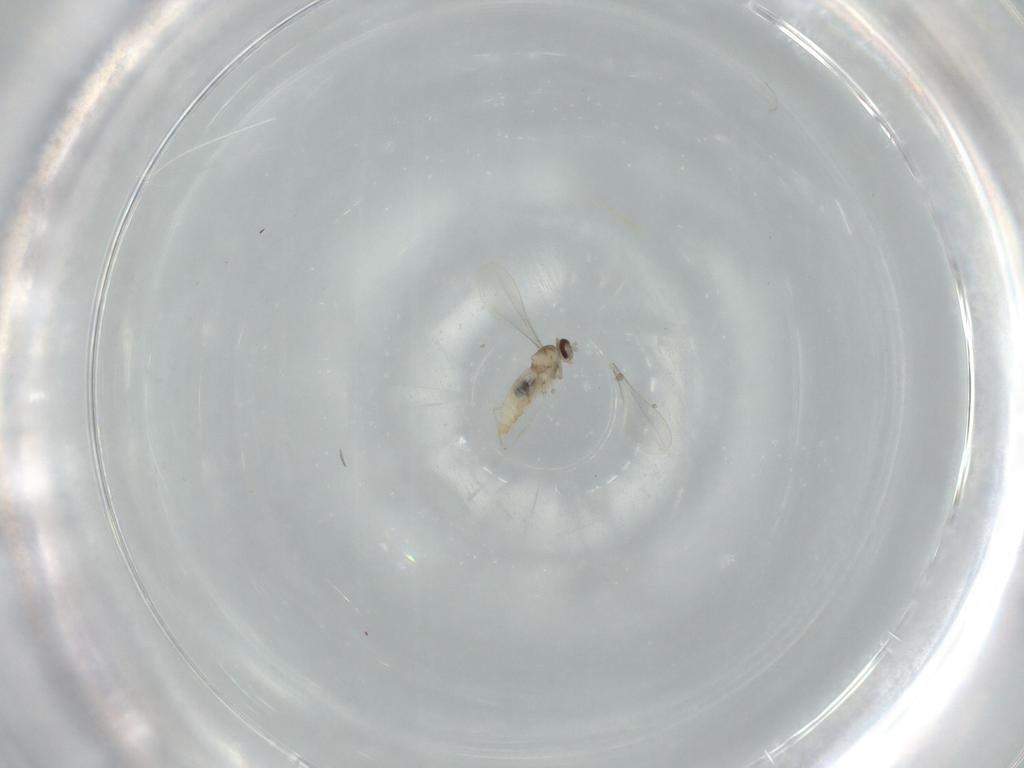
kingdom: Animalia
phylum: Arthropoda
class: Insecta
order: Diptera
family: Cecidomyiidae
